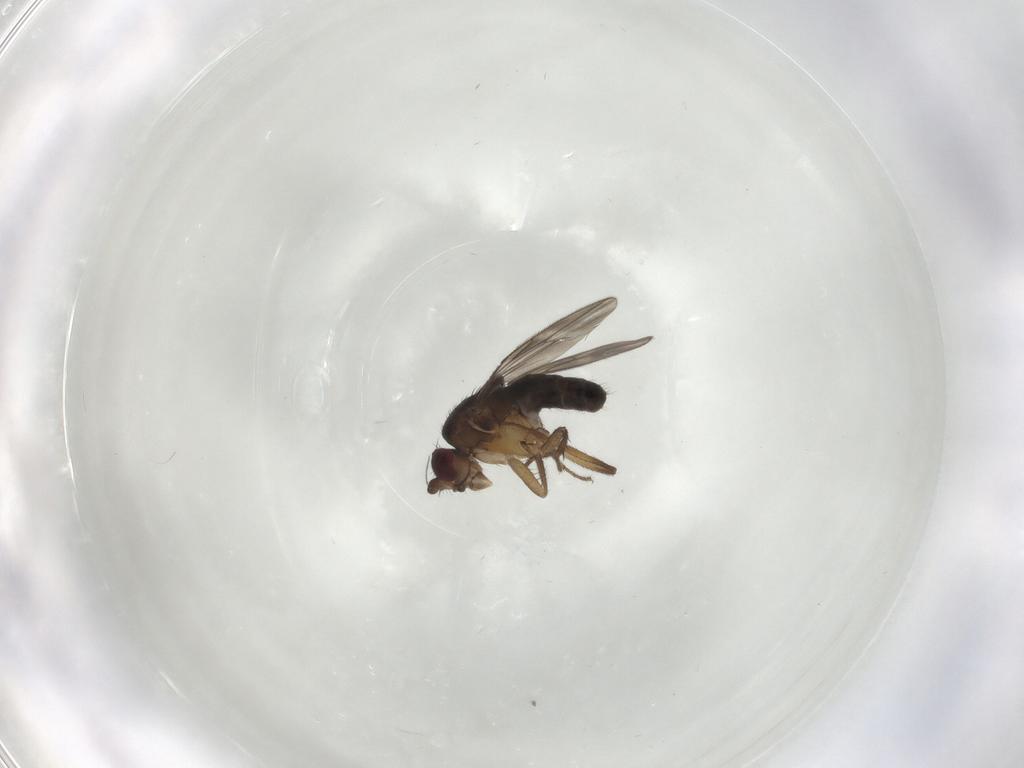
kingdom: Animalia
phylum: Arthropoda
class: Insecta
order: Diptera
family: Sphaeroceridae
